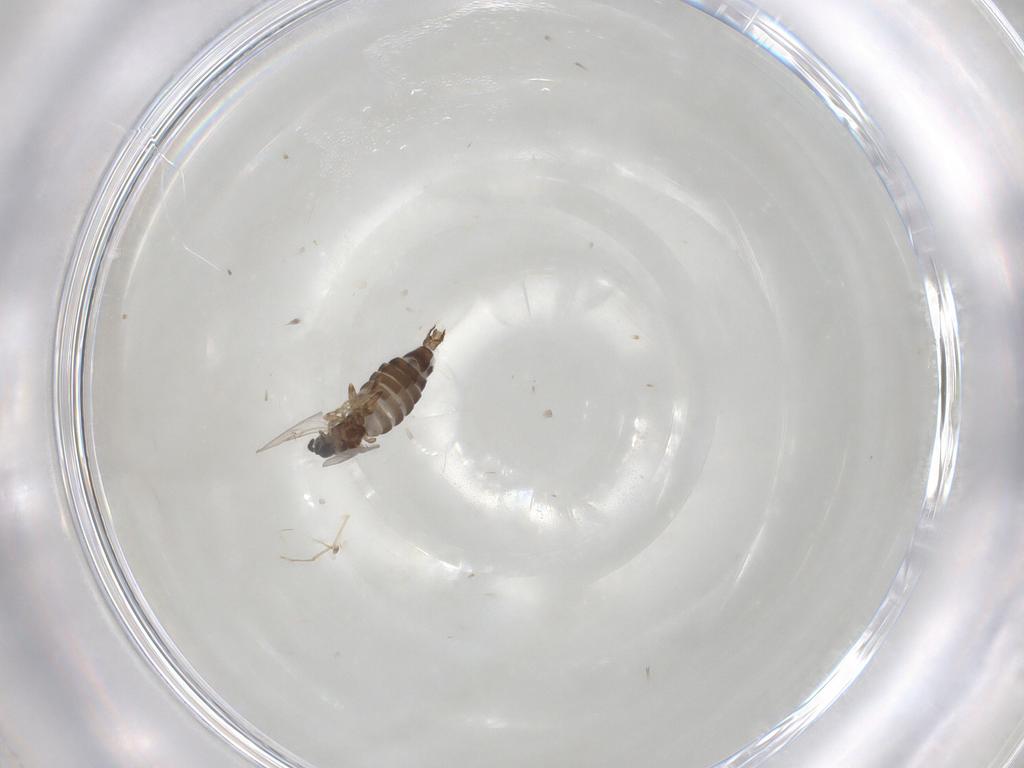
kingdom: Animalia
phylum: Arthropoda
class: Insecta
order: Diptera
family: Scatopsidae
